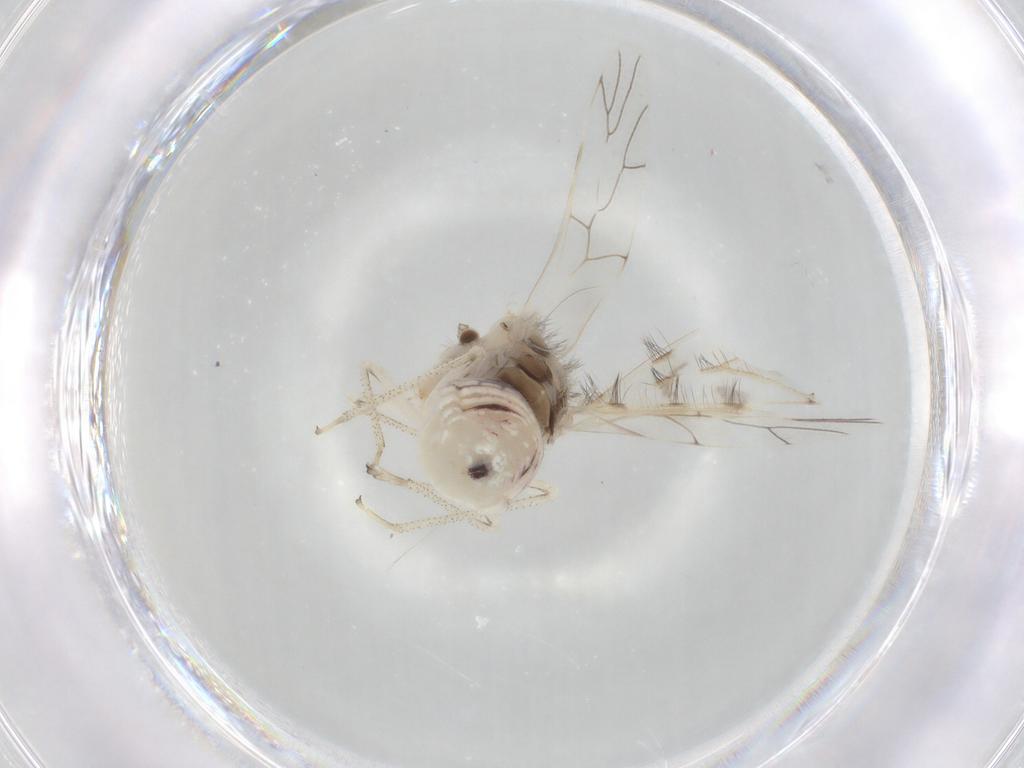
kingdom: Animalia
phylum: Arthropoda
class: Insecta
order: Psocodea
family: Amphipsocidae
